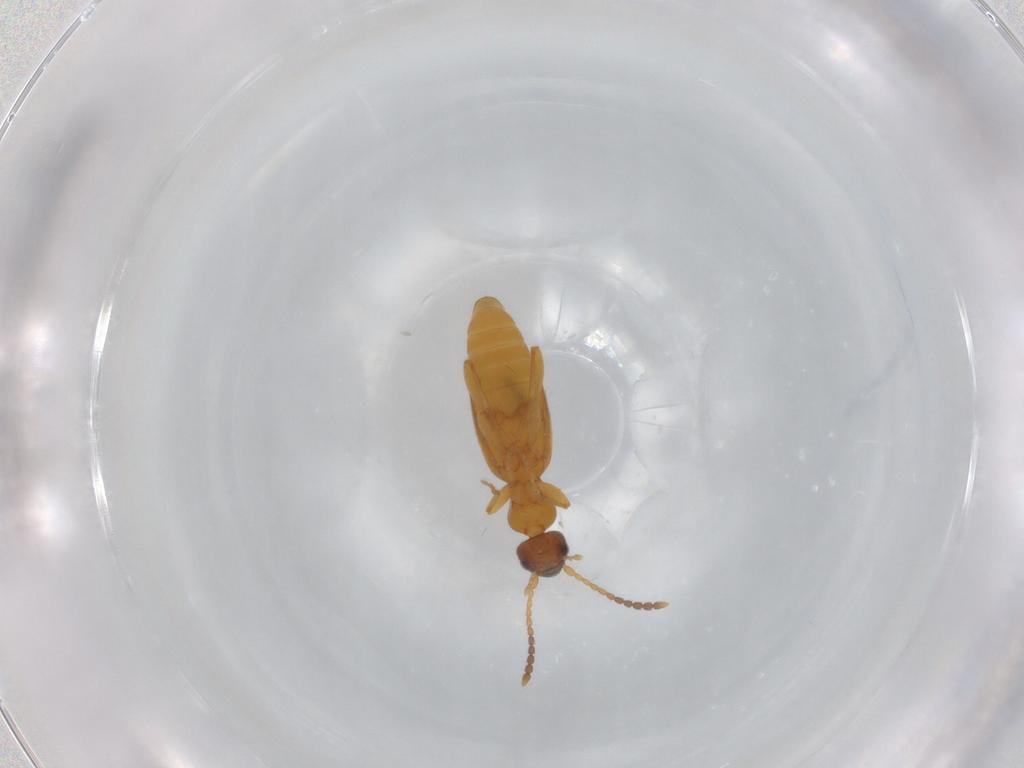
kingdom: Animalia
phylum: Arthropoda
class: Insecta
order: Coleoptera
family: Anthicidae
